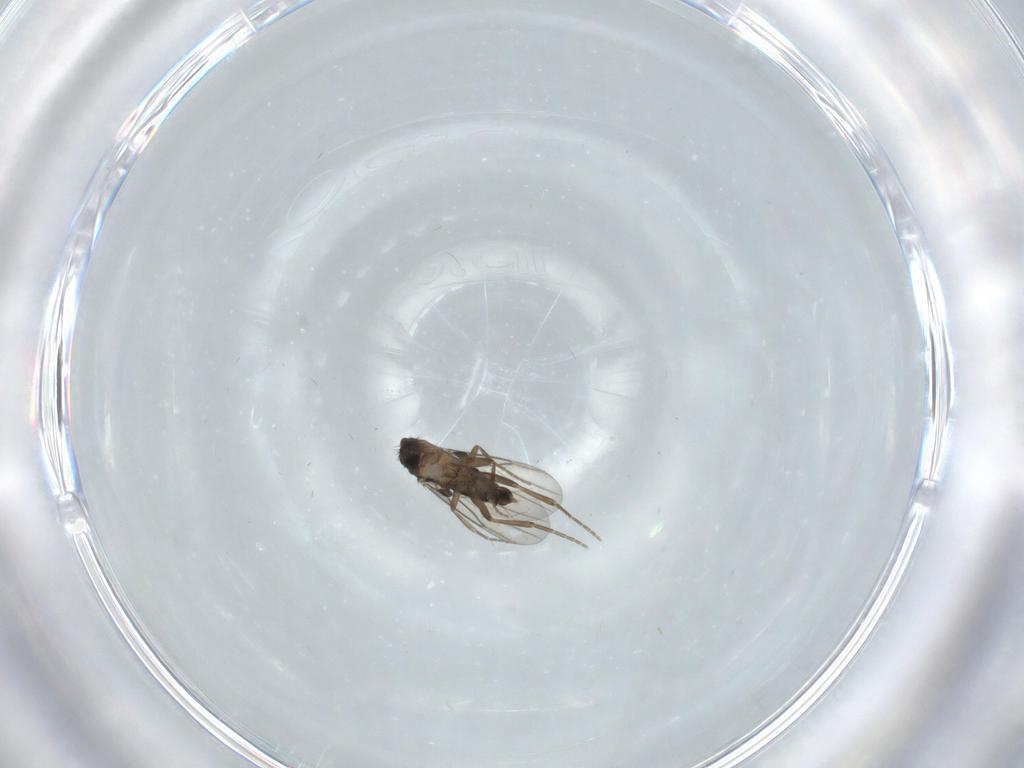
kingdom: Animalia
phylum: Arthropoda
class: Insecta
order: Diptera
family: Phoridae
